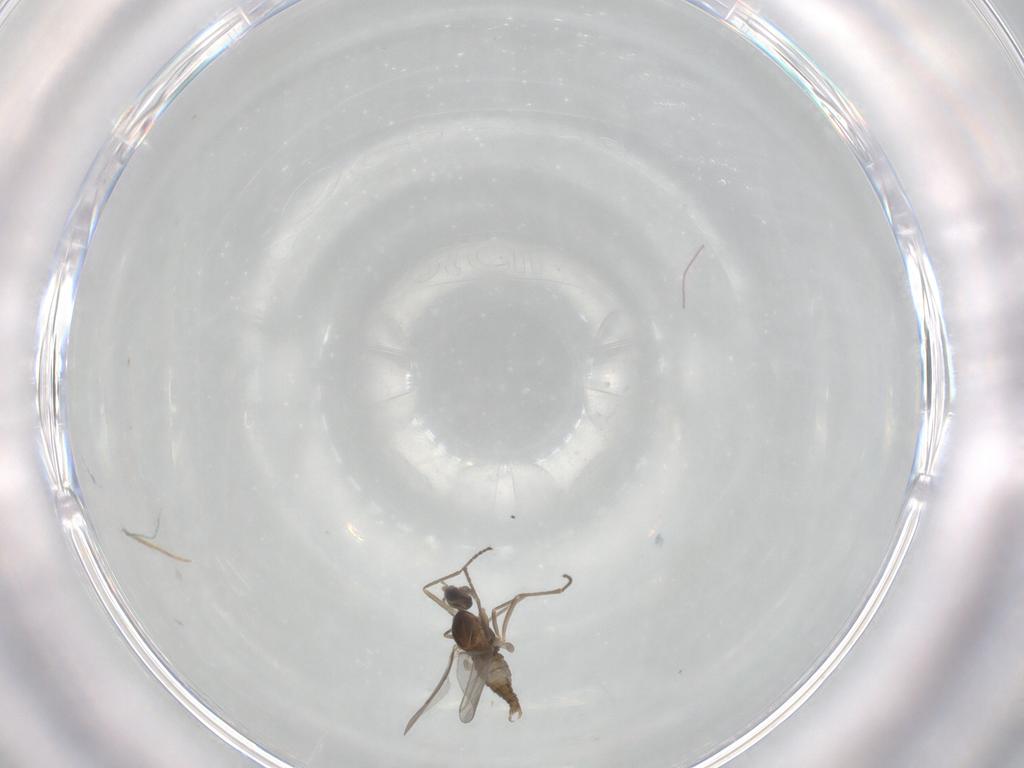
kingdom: Animalia
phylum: Arthropoda
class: Insecta
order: Diptera
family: Cecidomyiidae
